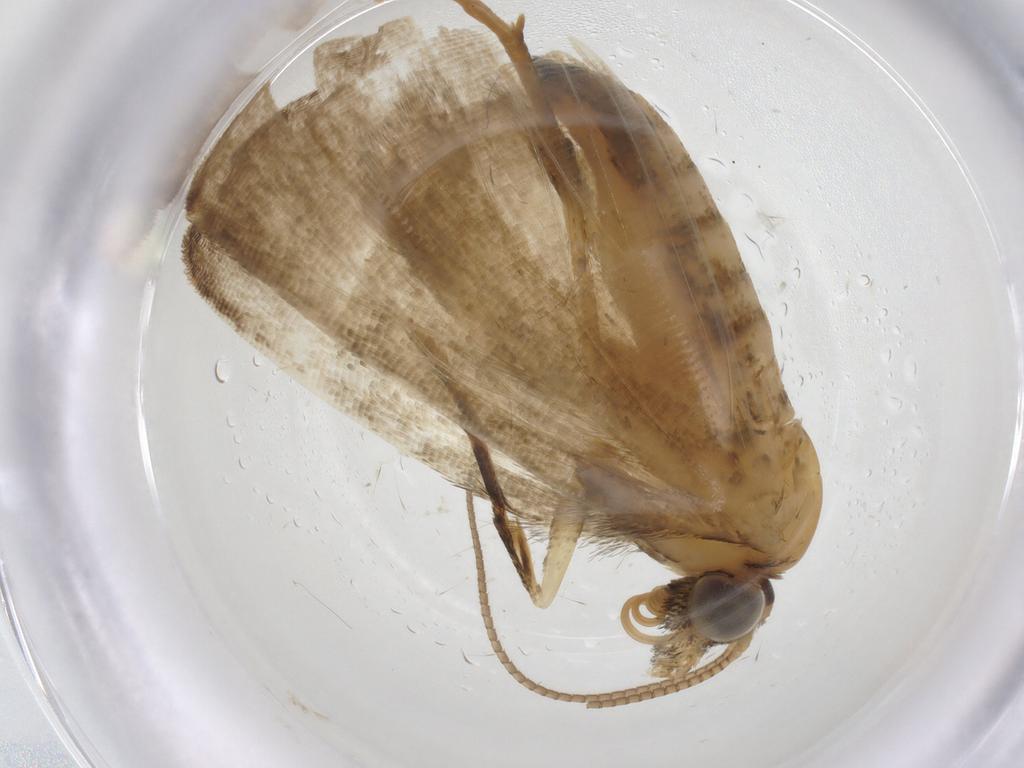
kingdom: Animalia
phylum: Arthropoda
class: Insecta
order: Lepidoptera
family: Geometridae
